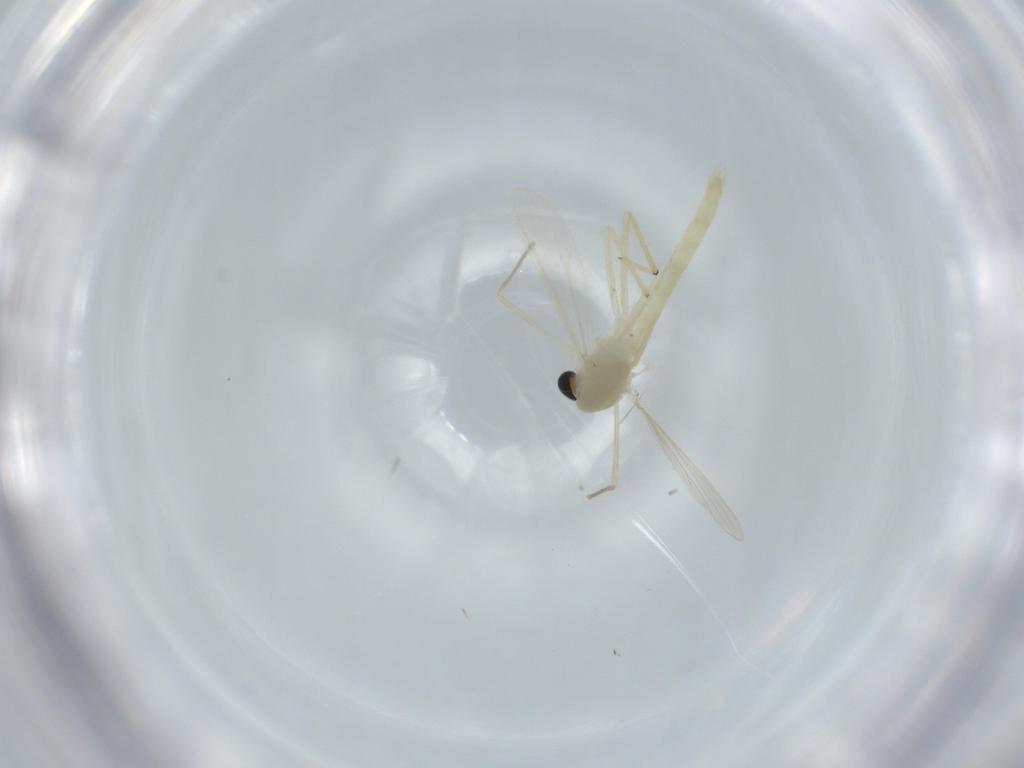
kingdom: Animalia
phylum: Arthropoda
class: Insecta
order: Diptera
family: Chironomidae
